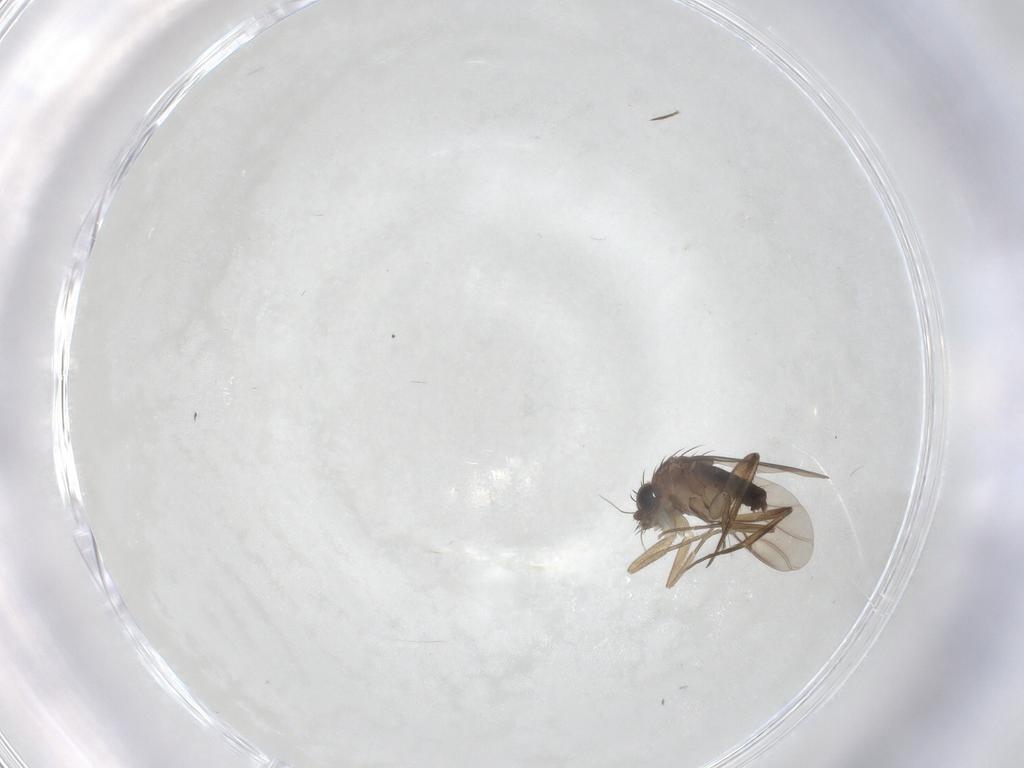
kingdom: Animalia
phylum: Arthropoda
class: Insecta
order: Diptera
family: Phoridae
